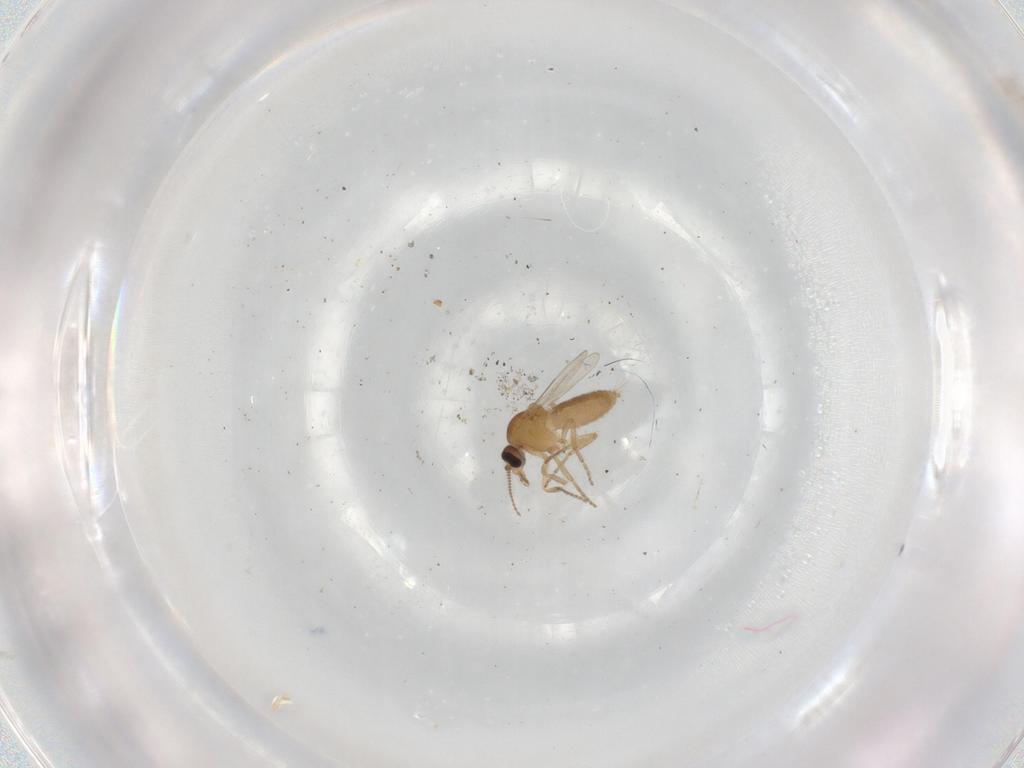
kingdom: Animalia
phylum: Arthropoda
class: Insecta
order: Diptera
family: Ceratopogonidae
